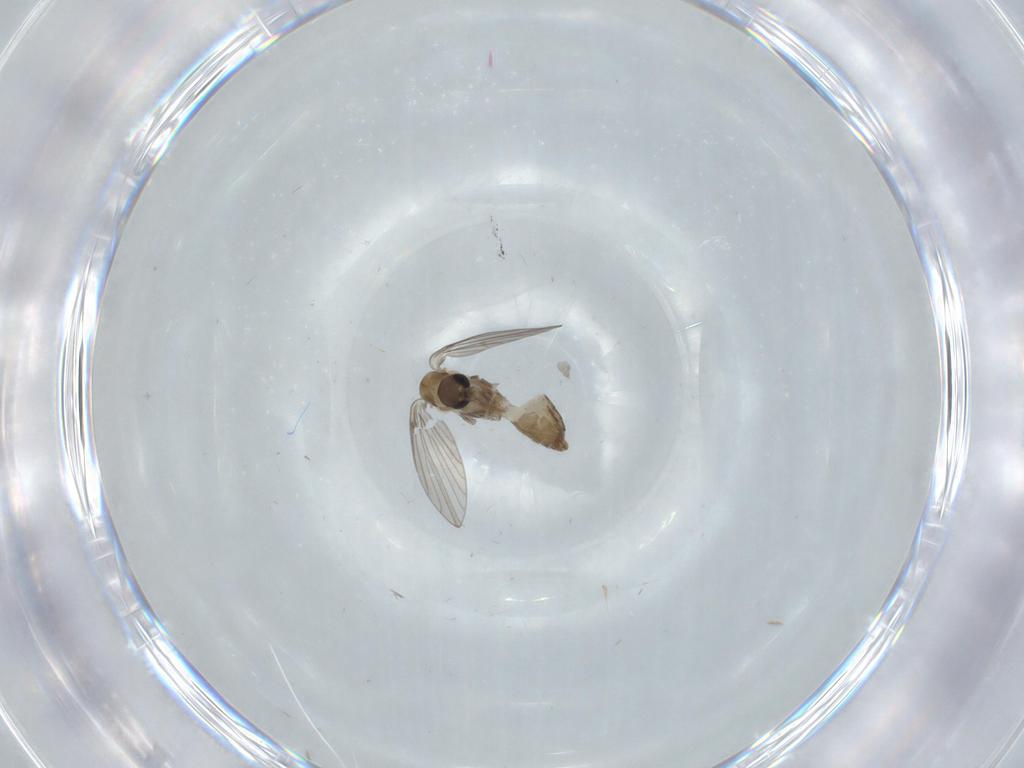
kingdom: Animalia
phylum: Arthropoda
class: Insecta
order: Diptera
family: Psychodidae
